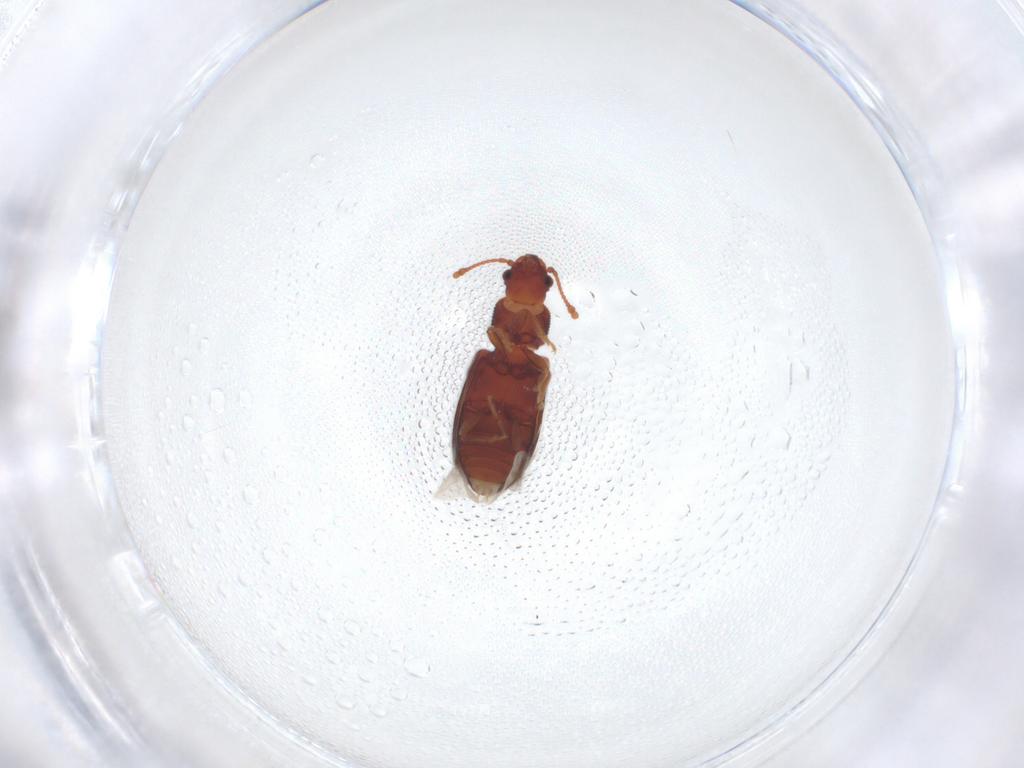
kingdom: Animalia
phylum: Arthropoda
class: Insecta
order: Coleoptera
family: Mycetophagidae
